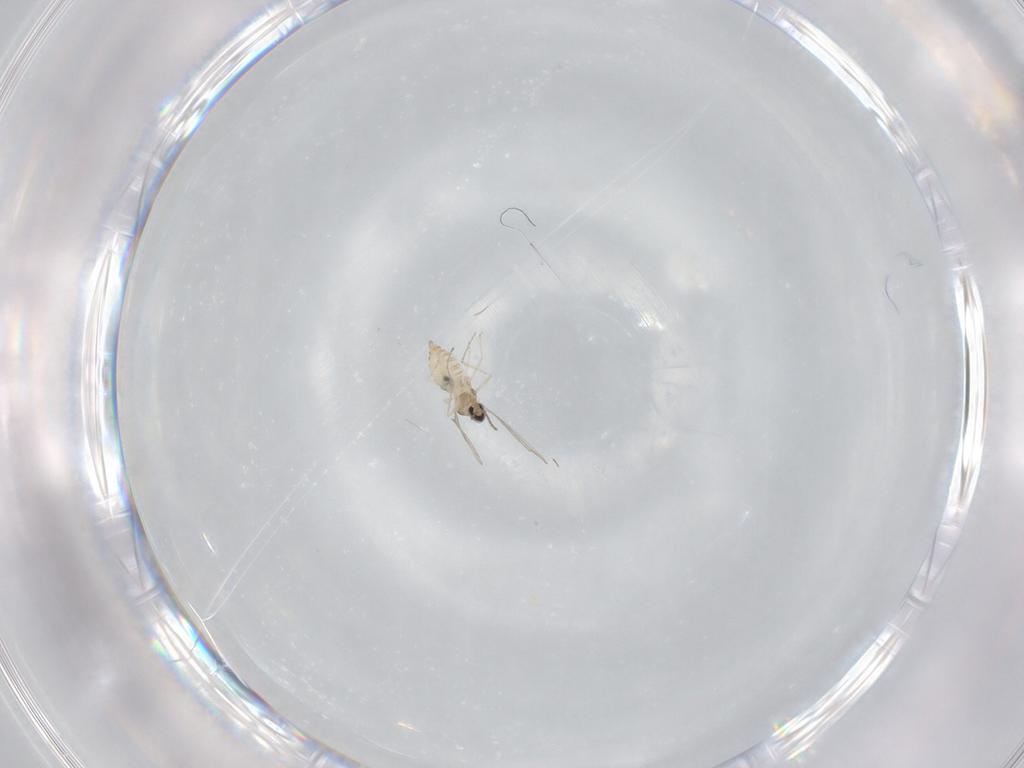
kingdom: Animalia
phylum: Arthropoda
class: Insecta
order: Diptera
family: Cecidomyiidae
